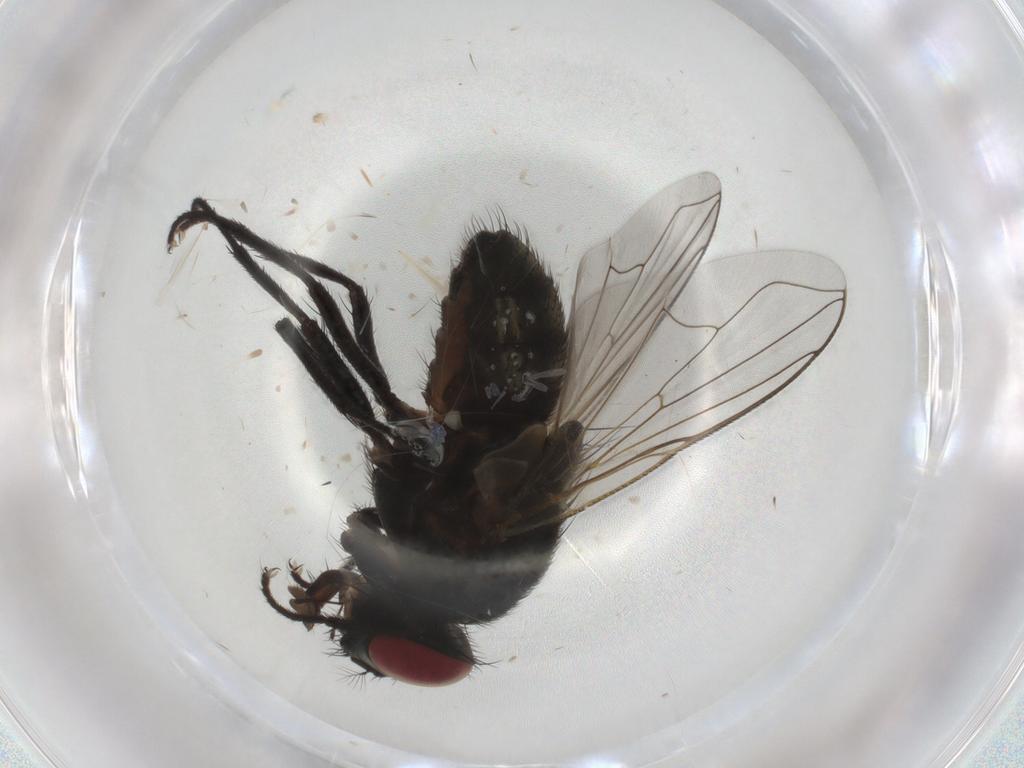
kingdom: Animalia
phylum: Arthropoda
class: Insecta
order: Diptera
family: Muscidae
